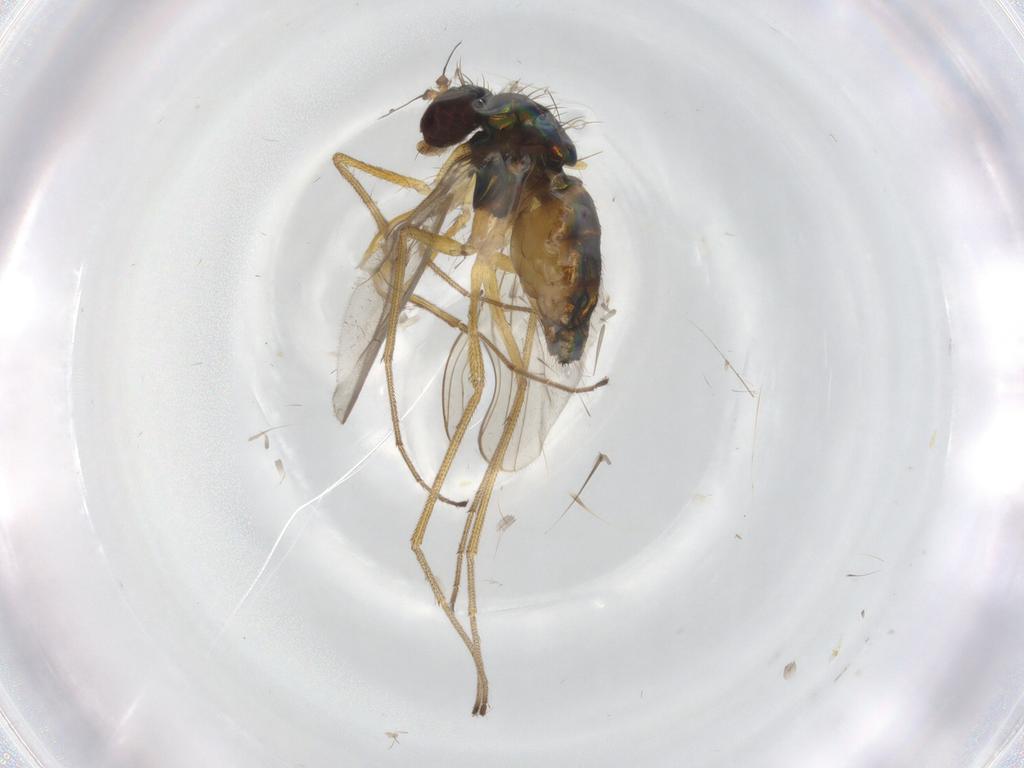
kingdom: Animalia
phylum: Arthropoda
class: Insecta
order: Diptera
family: Dolichopodidae
